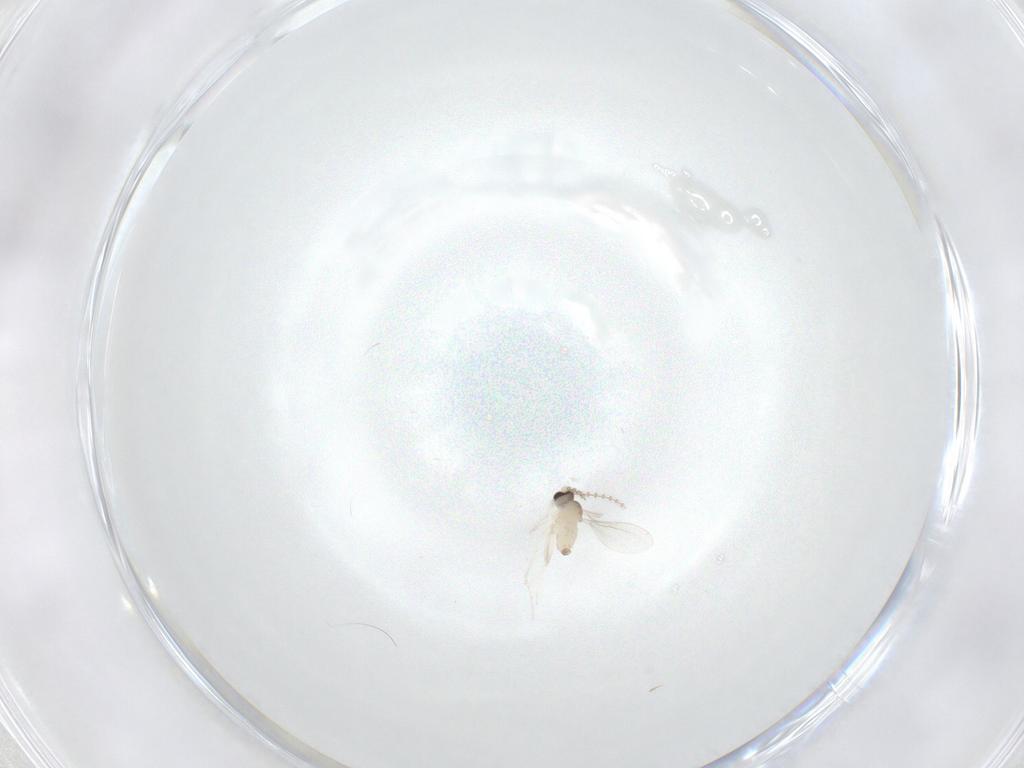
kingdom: Animalia
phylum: Arthropoda
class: Insecta
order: Diptera
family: Cecidomyiidae
